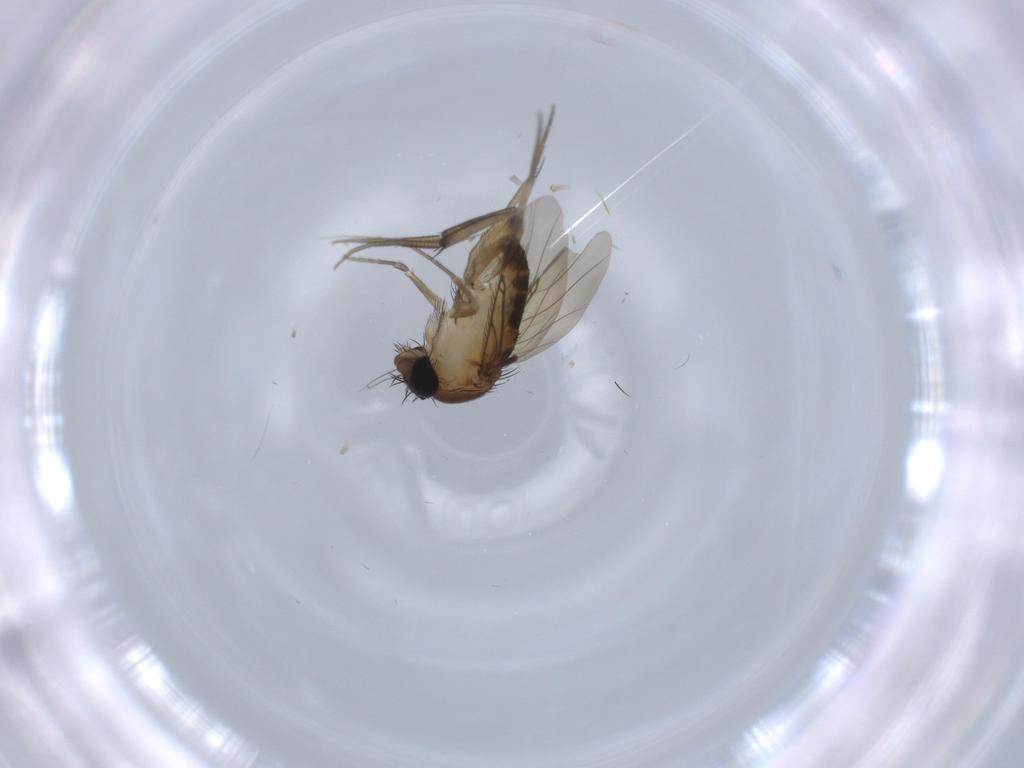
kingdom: Animalia
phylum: Arthropoda
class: Insecta
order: Diptera
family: Phoridae
